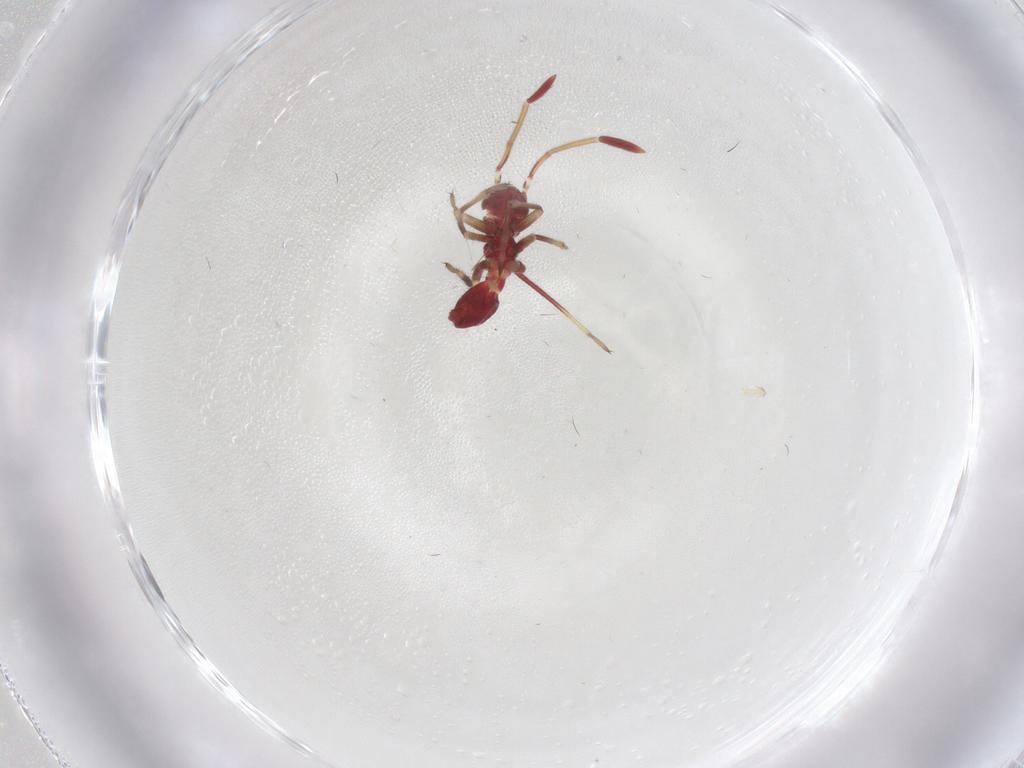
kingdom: Animalia
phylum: Arthropoda
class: Insecta
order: Hemiptera
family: Miridae
